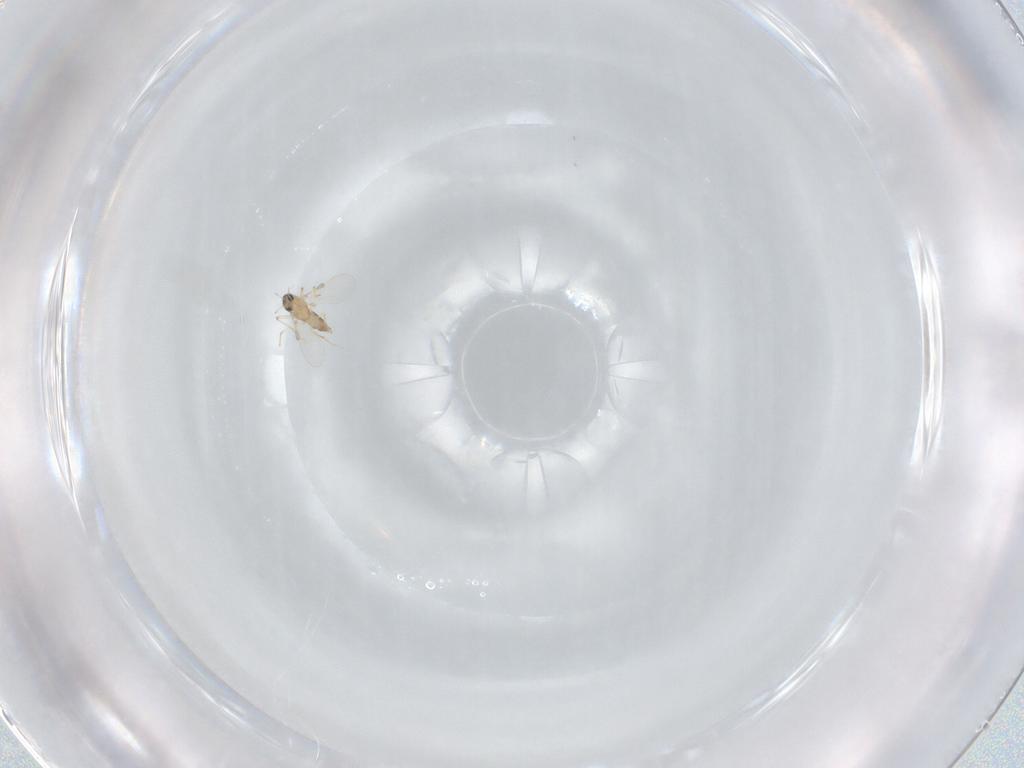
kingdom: Animalia
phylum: Arthropoda
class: Insecta
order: Diptera
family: Chironomidae
